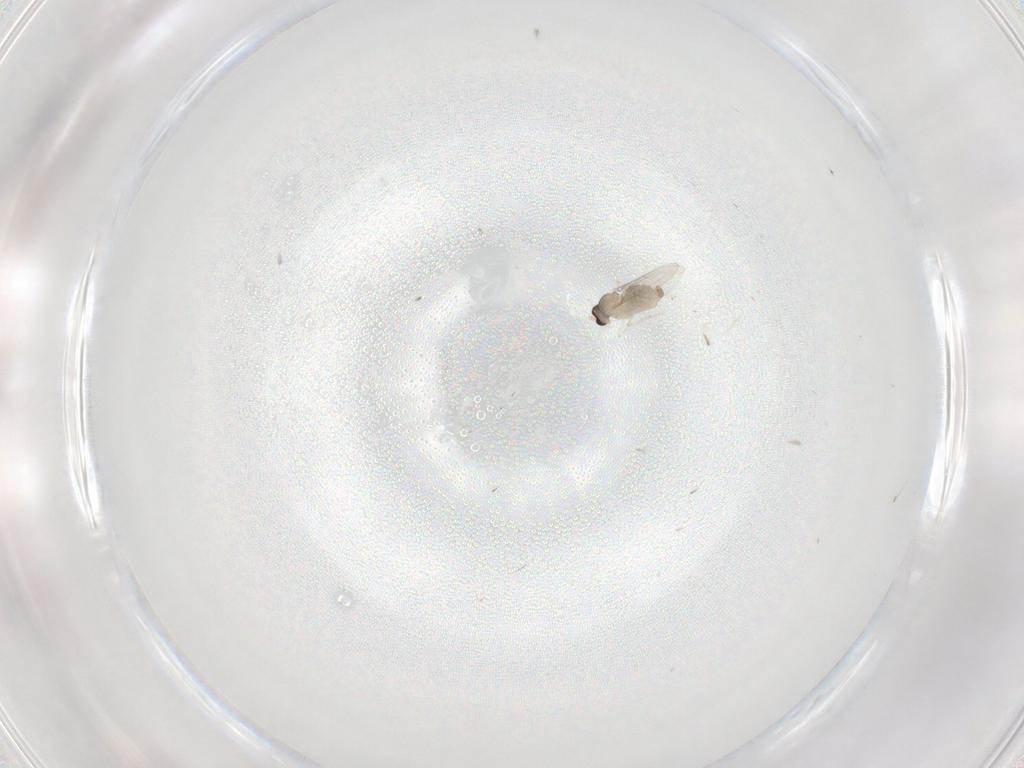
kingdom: Animalia
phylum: Arthropoda
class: Insecta
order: Diptera
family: Cecidomyiidae
